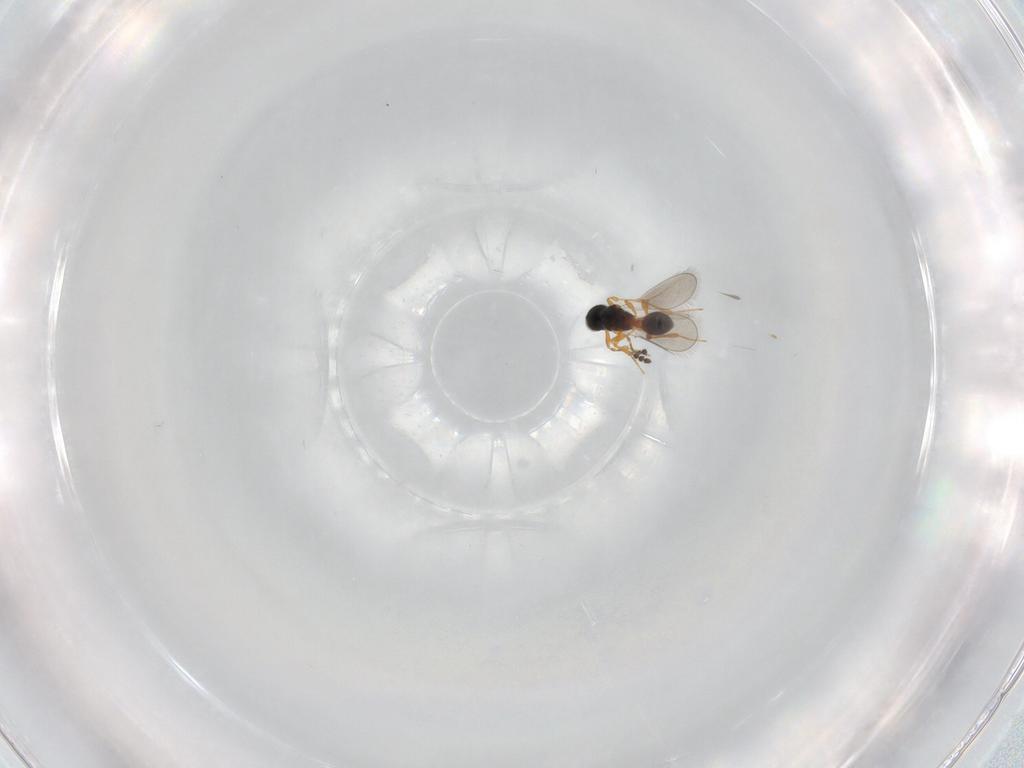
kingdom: Animalia
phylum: Arthropoda
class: Insecta
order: Hymenoptera
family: Platygastridae
